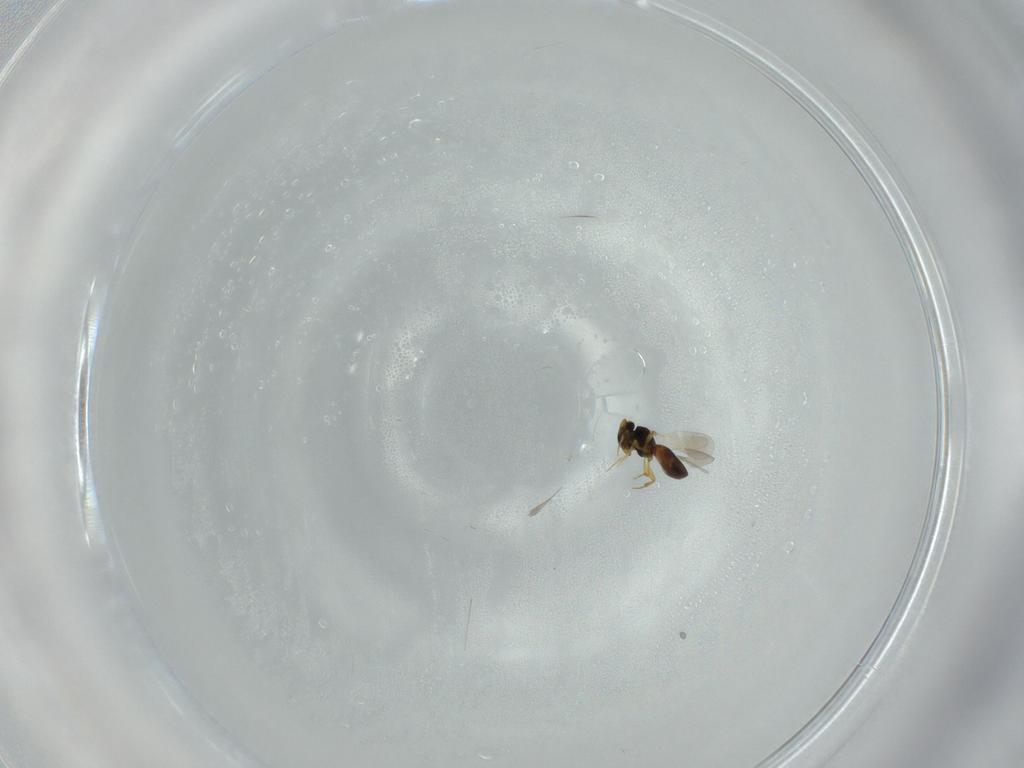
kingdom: Animalia
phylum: Arthropoda
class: Insecta
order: Hymenoptera
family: Platygastridae
